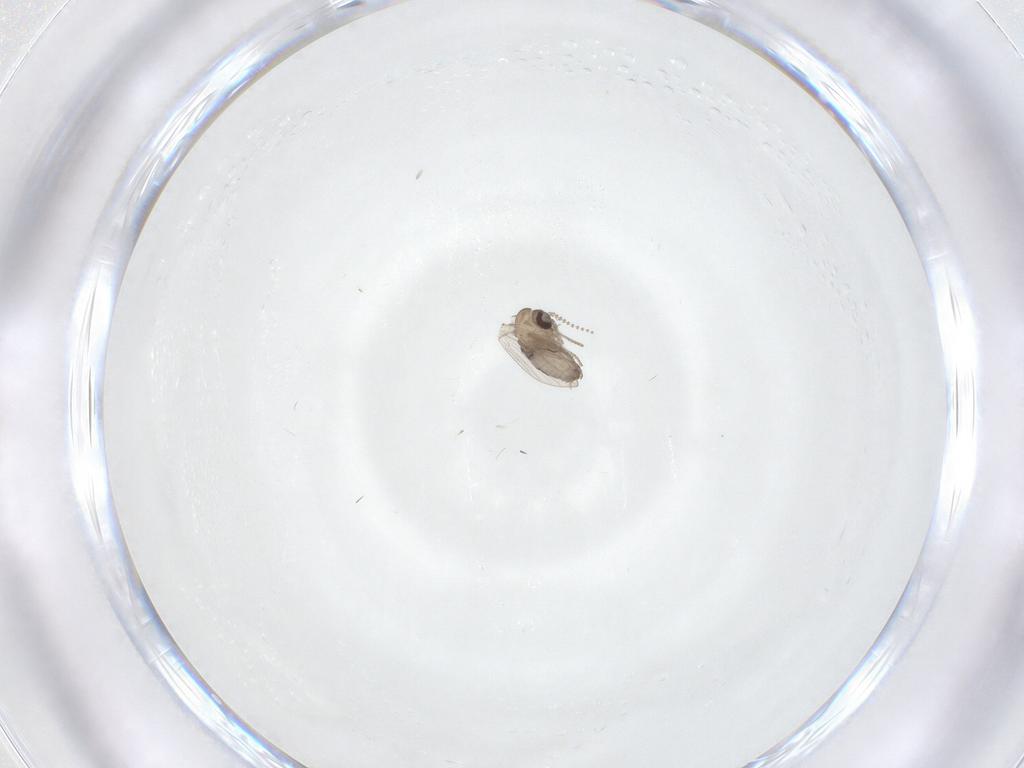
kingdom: Animalia
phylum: Arthropoda
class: Insecta
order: Diptera
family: Psychodidae
